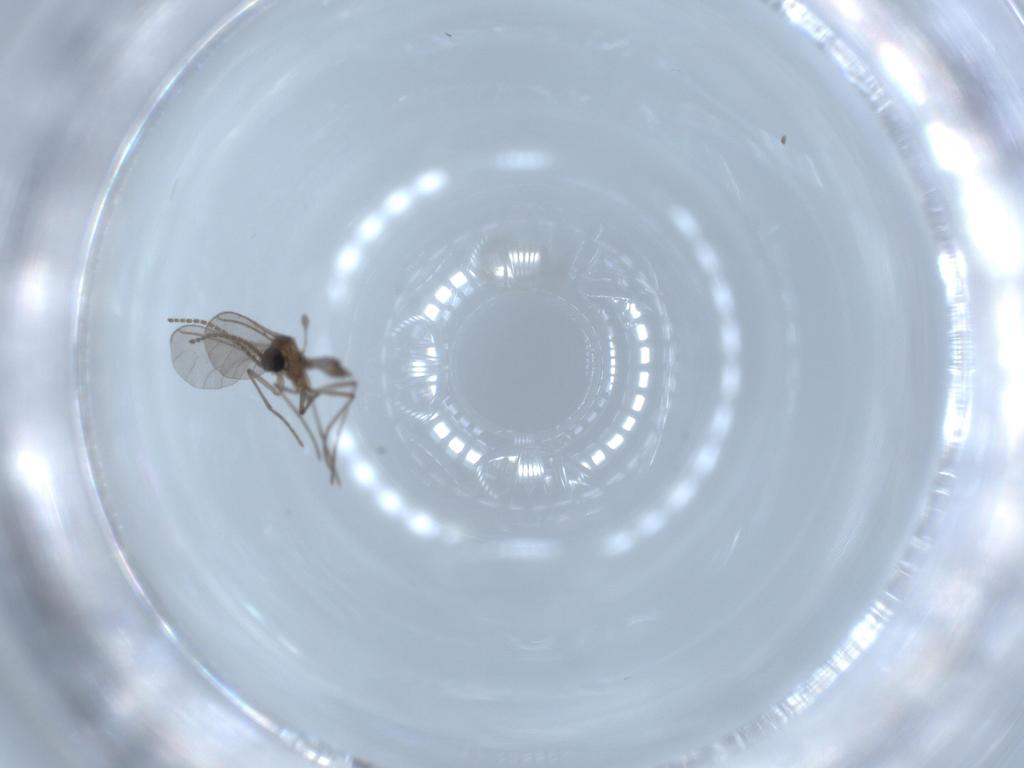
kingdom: Animalia
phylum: Arthropoda
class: Insecta
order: Diptera
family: Sciaridae
